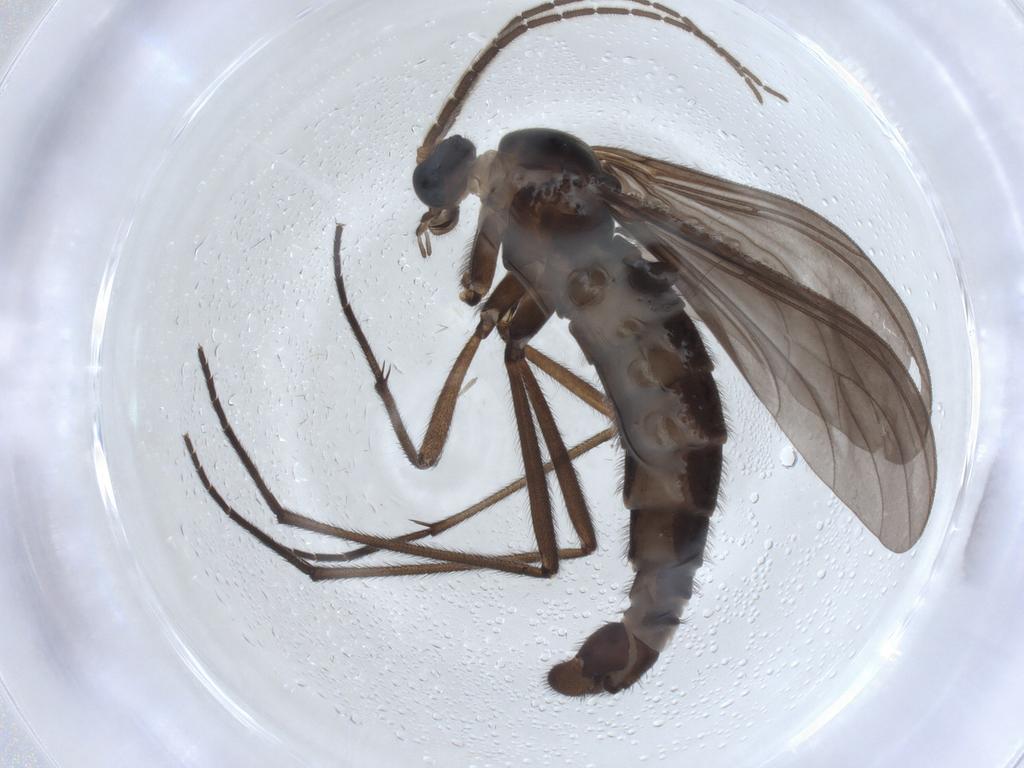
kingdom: Animalia
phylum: Arthropoda
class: Insecta
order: Diptera
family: Sciaridae
